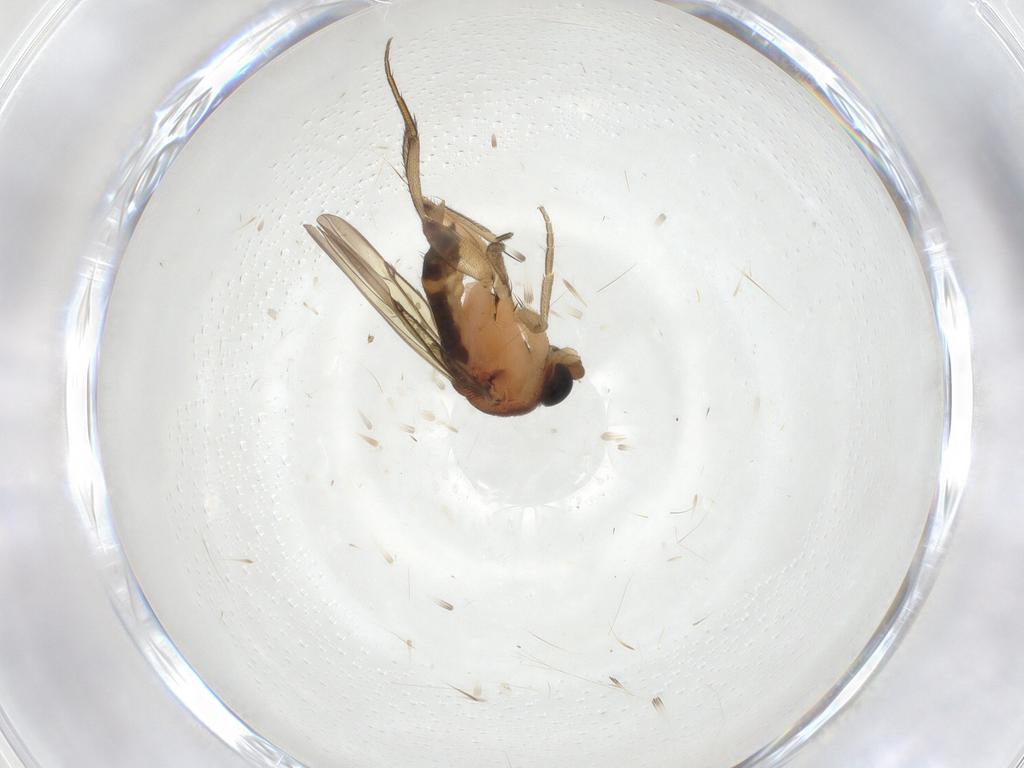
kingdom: Animalia
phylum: Arthropoda
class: Insecta
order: Diptera
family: Phoridae
